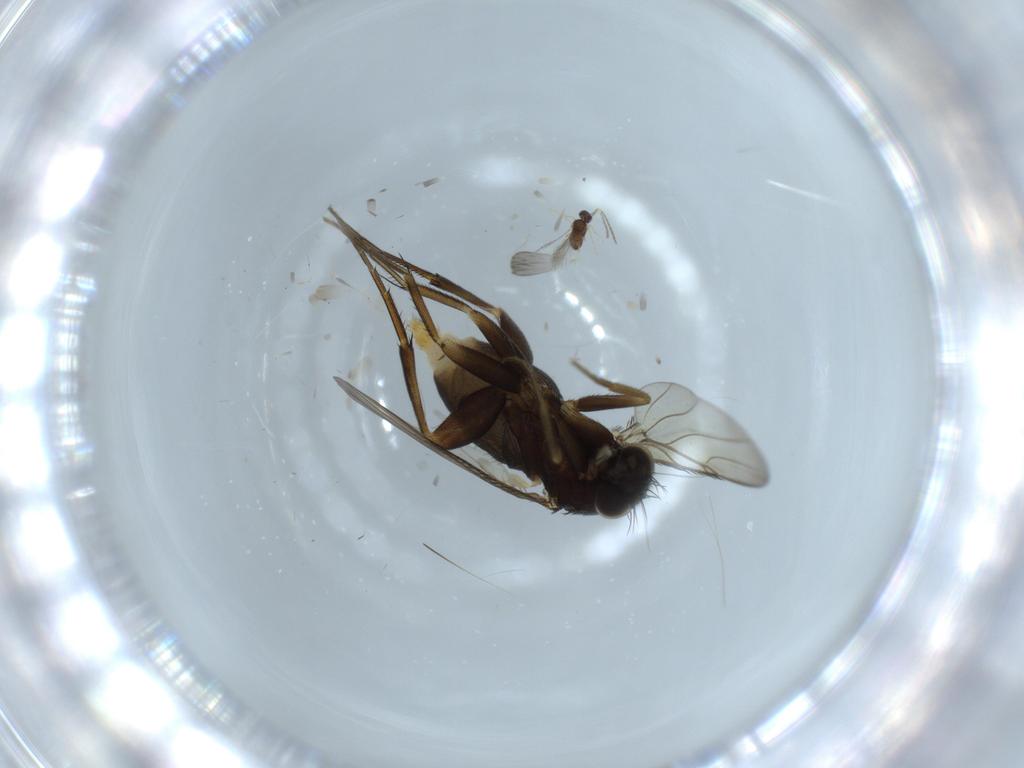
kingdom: Animalia
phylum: Arthropoda
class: Insecta
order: Diptera
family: Phoridae
